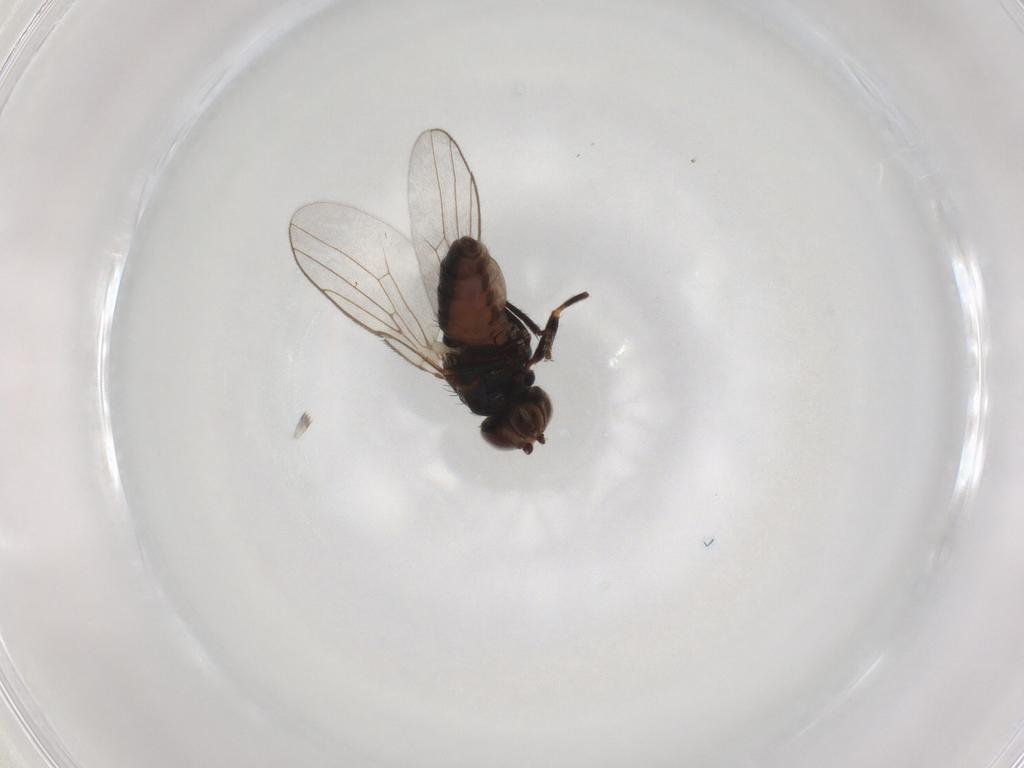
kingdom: Animalia
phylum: Arthropoda
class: Insecta
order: Diptera
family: Chloropidae
